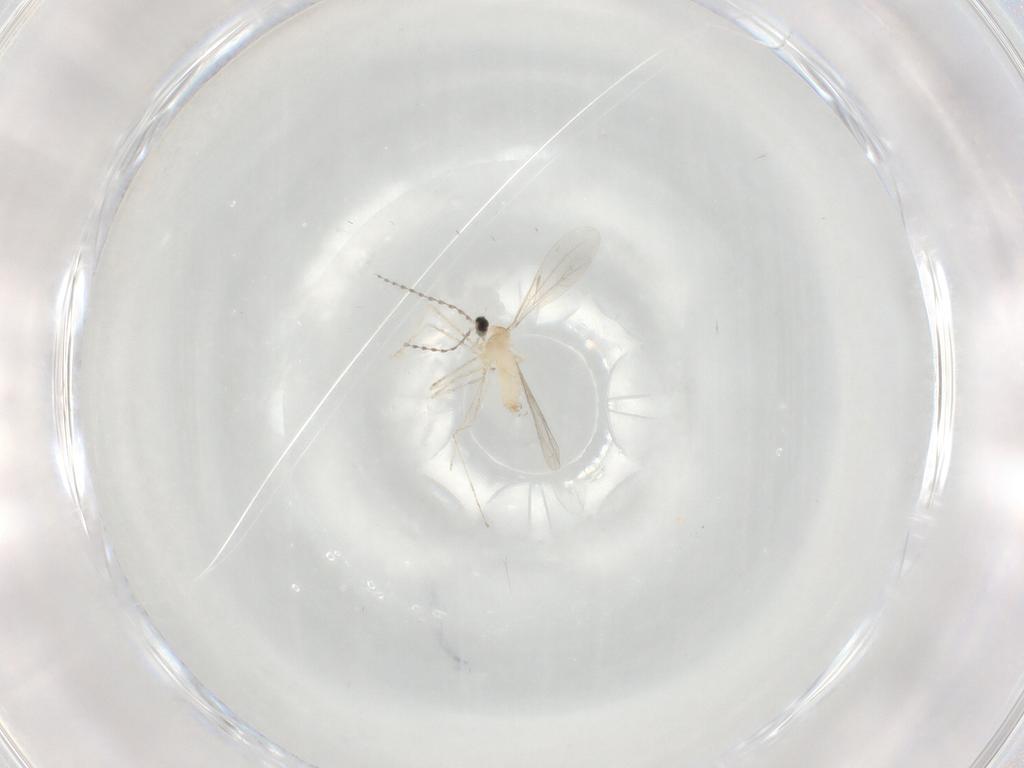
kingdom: Animalia
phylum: Arthropoda
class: Insecta
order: Diptera
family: Cecidomyiidae
